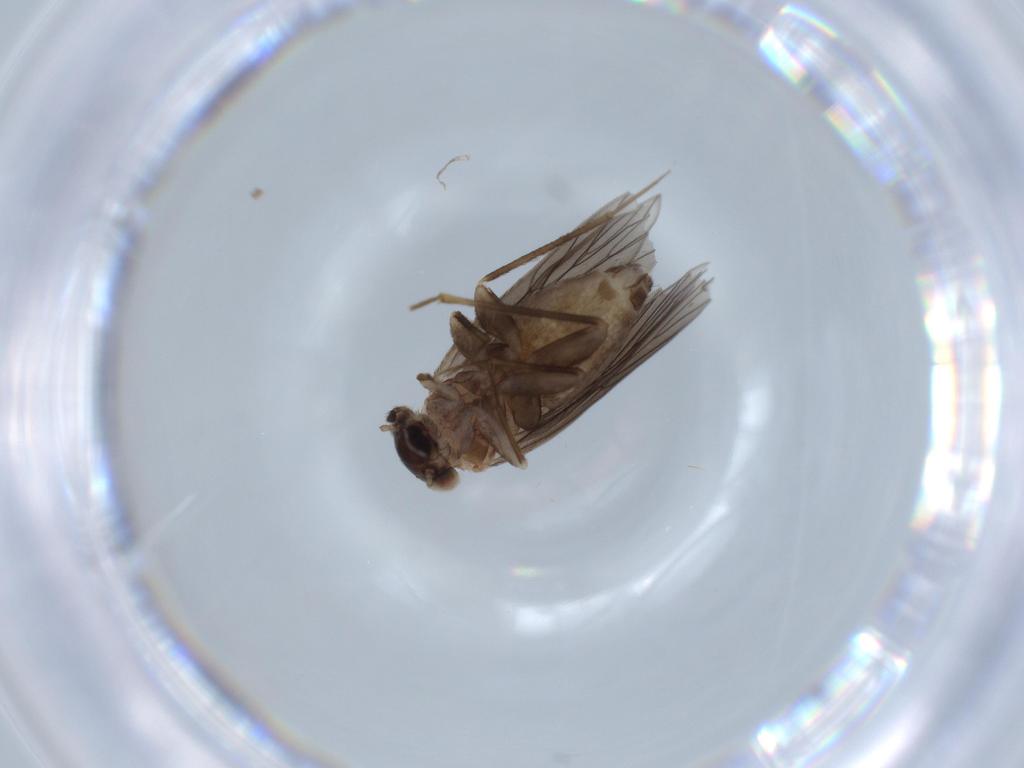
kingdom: Animalia
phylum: Arthropoda
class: Insecta
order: Psocodea
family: Lepidopsocidae
